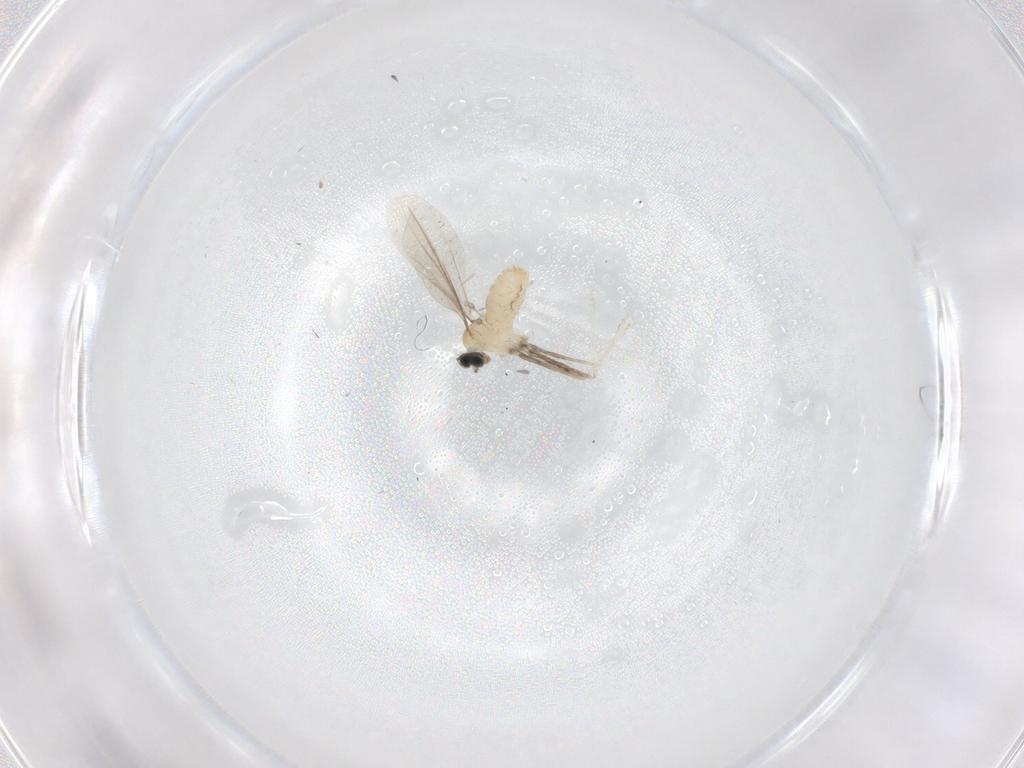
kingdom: Animalia
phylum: Arthropoda
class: Insecta
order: Diptera
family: Cecidomyiidae
